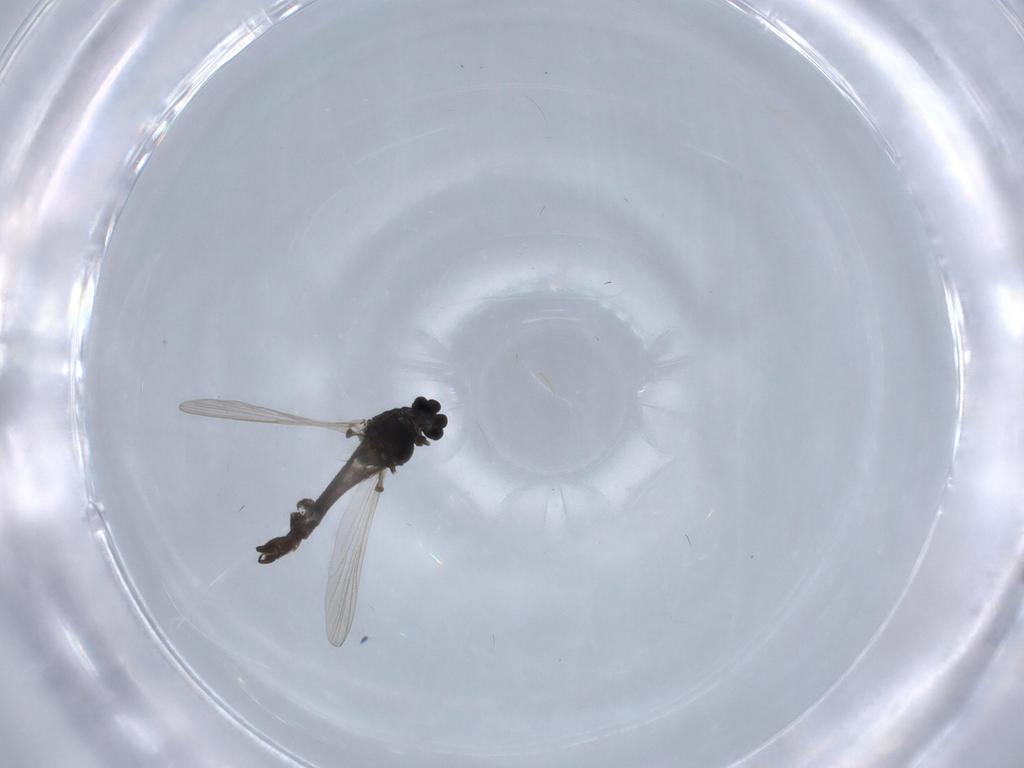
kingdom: Animalia
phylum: Arthropoda
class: Insecta
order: Diptera
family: Chironomidae
